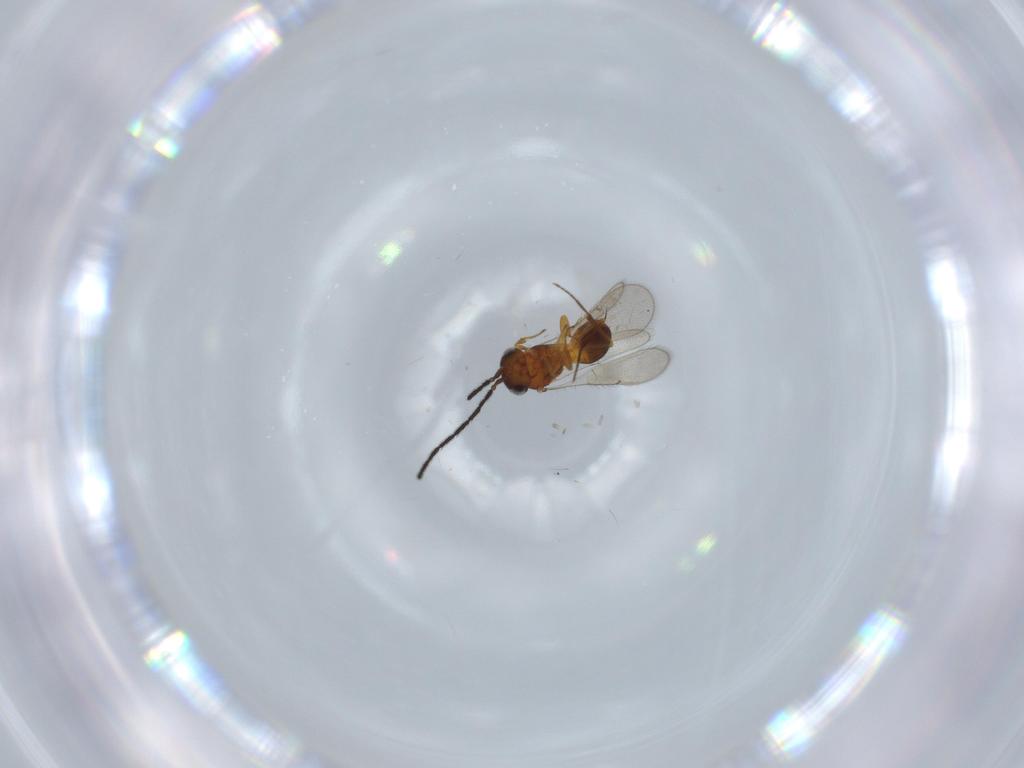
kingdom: Animalia
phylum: Arthropoda
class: Insecta
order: Hymenoptera
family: Scelionidae
